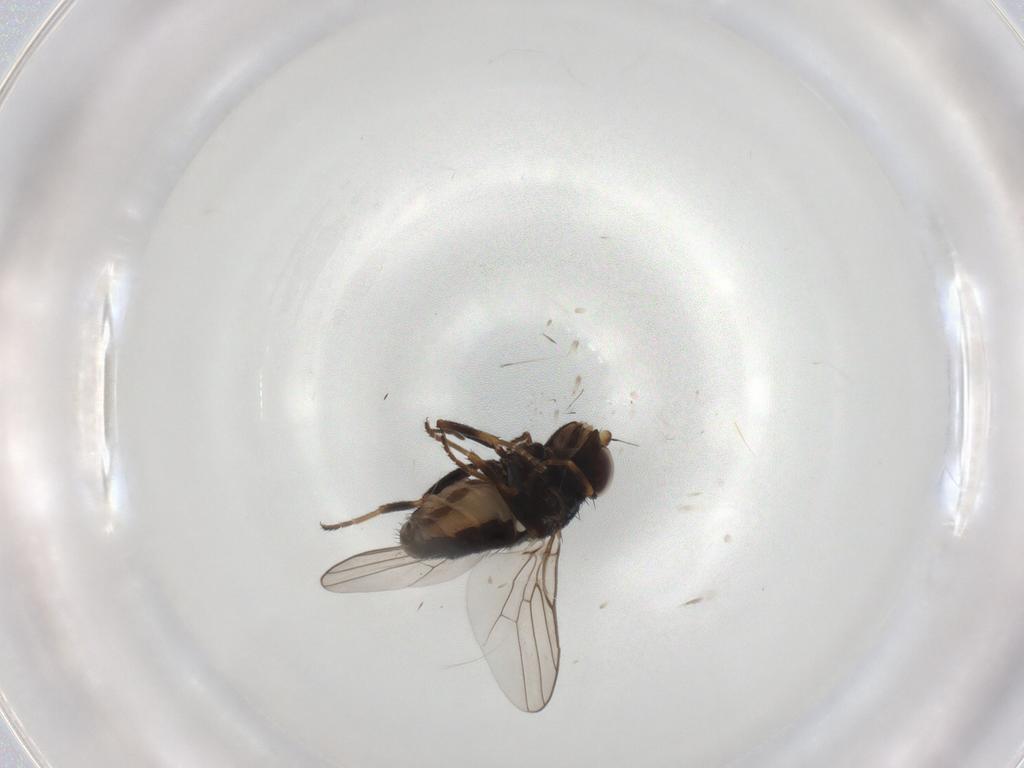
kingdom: Animalia
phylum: Arthropoda
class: Insecta
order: Diptera
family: Chloropidae
